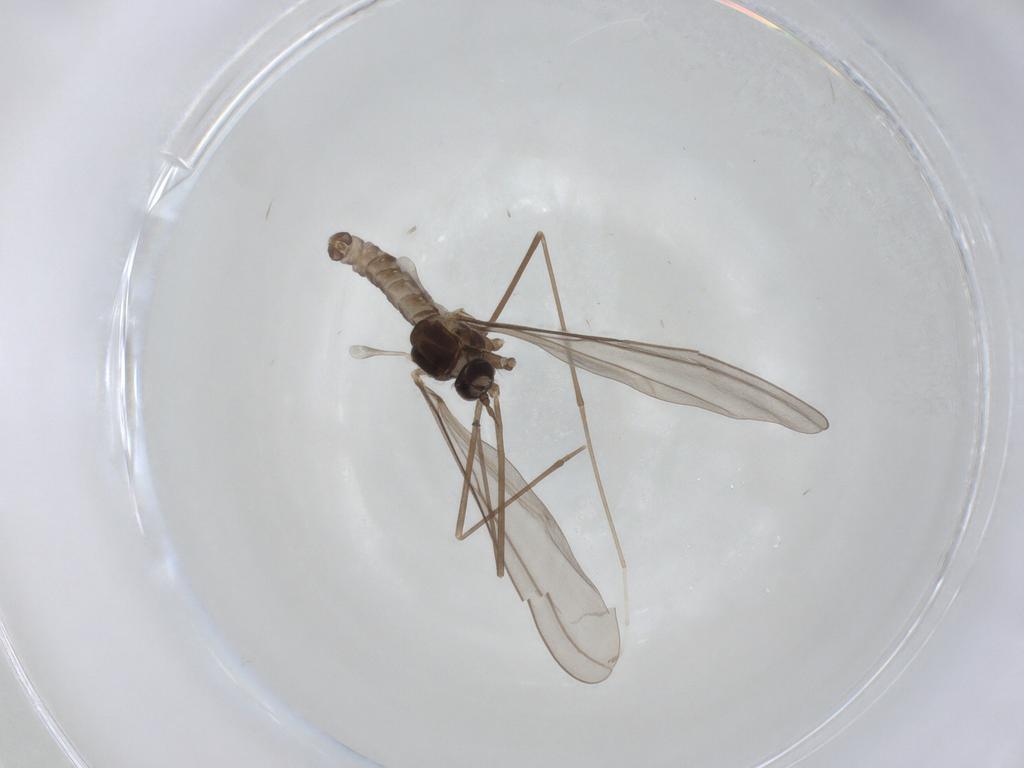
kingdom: Animalia
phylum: Arthropoda
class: Insecta
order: Diptera
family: Cecidomyiidae
